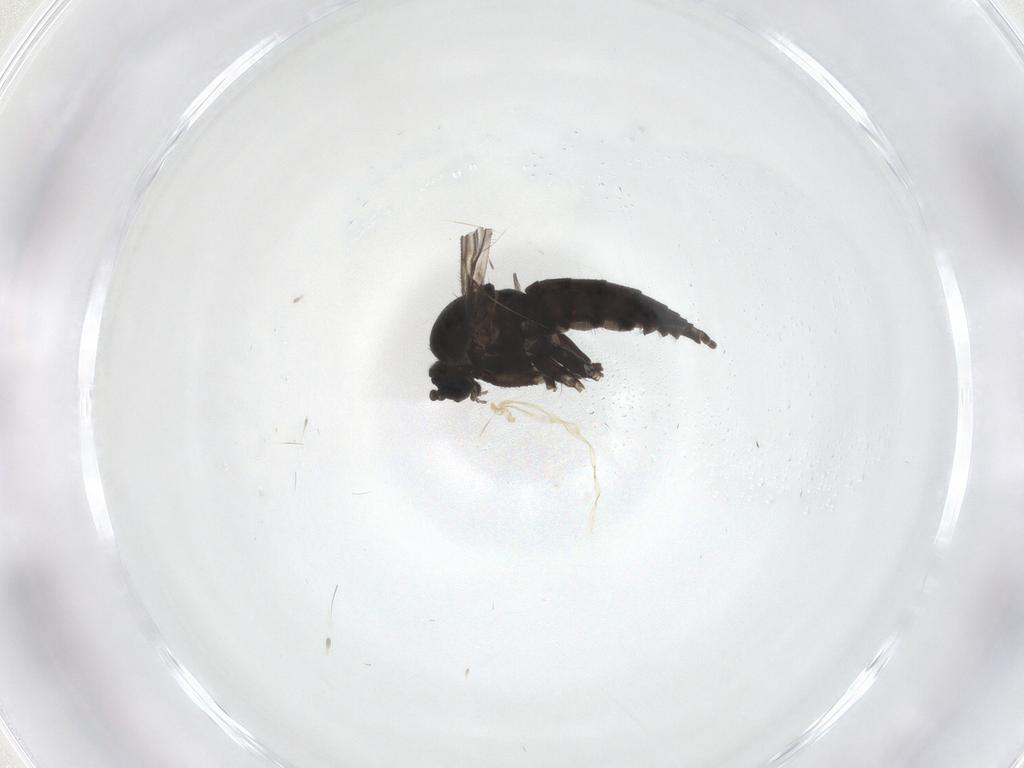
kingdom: Animalia
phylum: Arthropoda
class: Insecta
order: Diptera
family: Sciaridae
